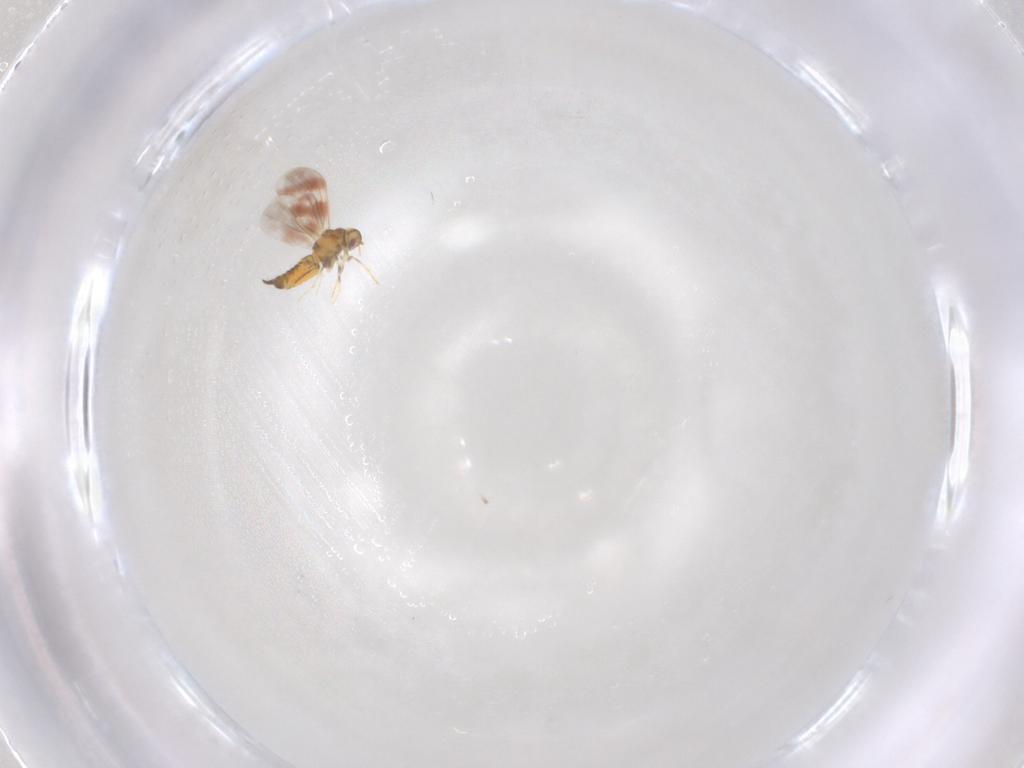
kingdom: Animalia
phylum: Arthropoda
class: Insecta
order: Hemiptera
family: Aleyrodidae
